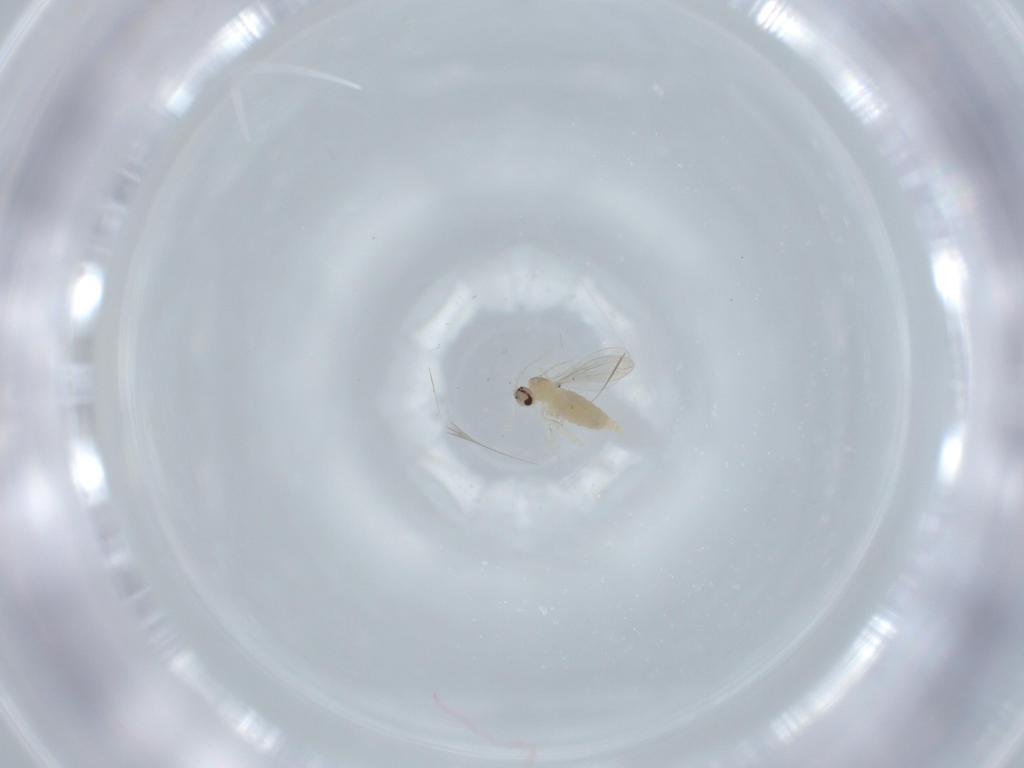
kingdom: Animalia
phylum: Arthropoda
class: Insecta
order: Diptera
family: Cecidomyiidae
